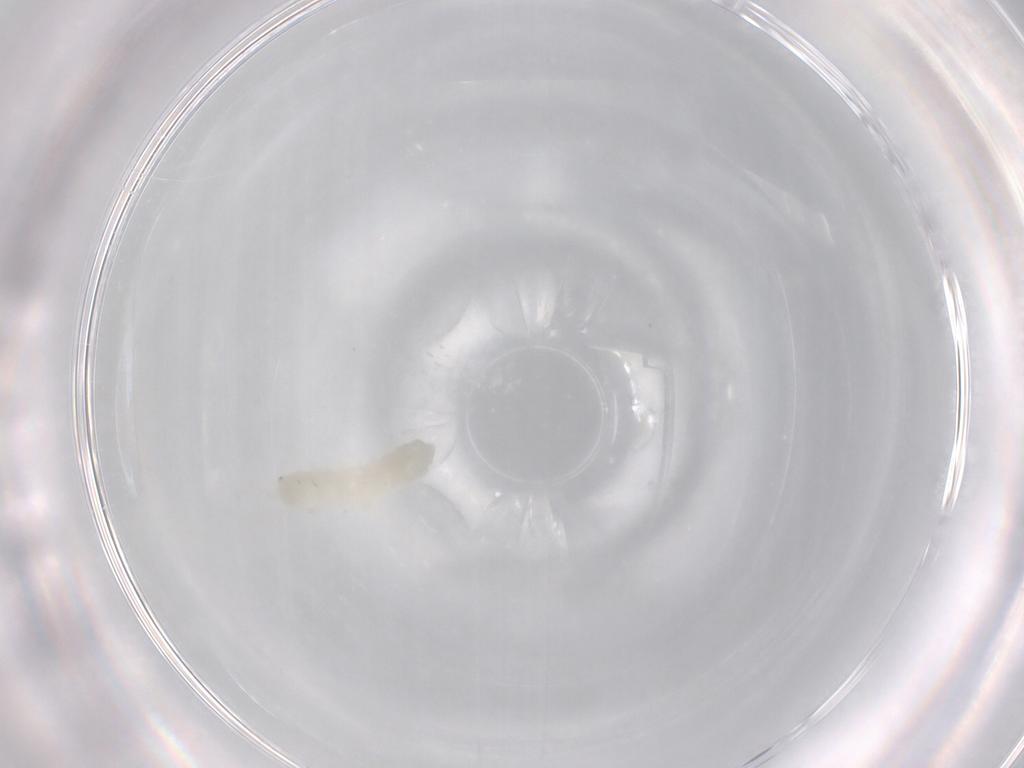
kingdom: Animalia
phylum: Arthropoda
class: Collembola
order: Poduromorpha
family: Onychiuridae
